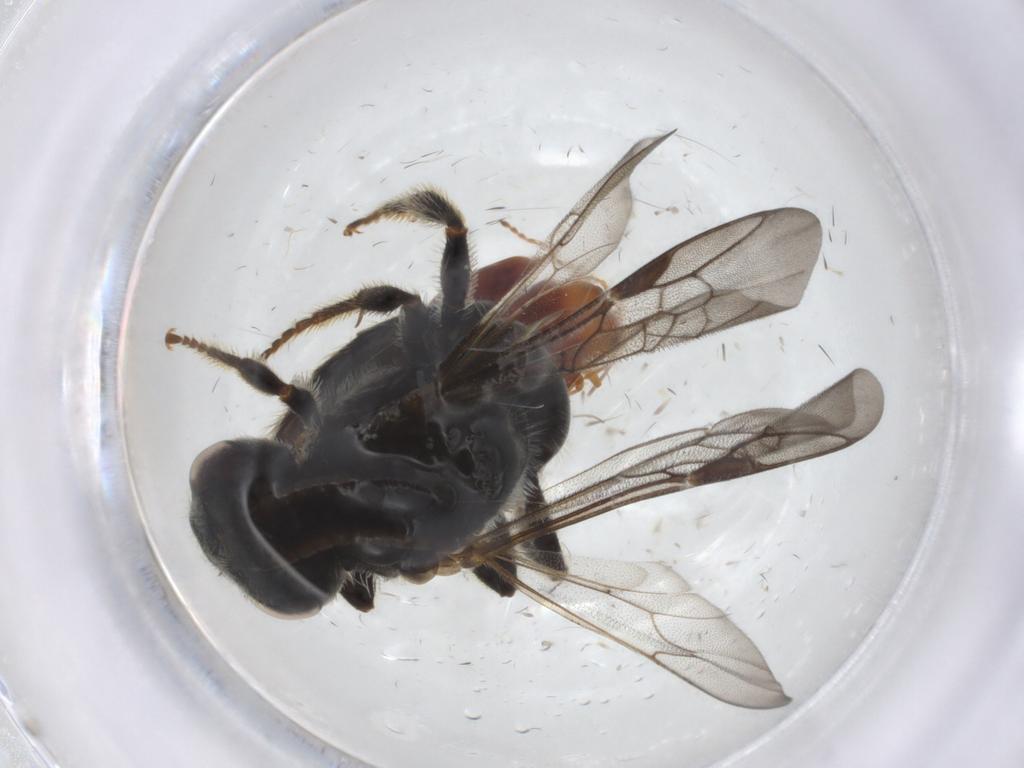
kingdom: Animalia
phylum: Arthropoda
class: Insecta
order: Hymenoptera
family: Halictidae
